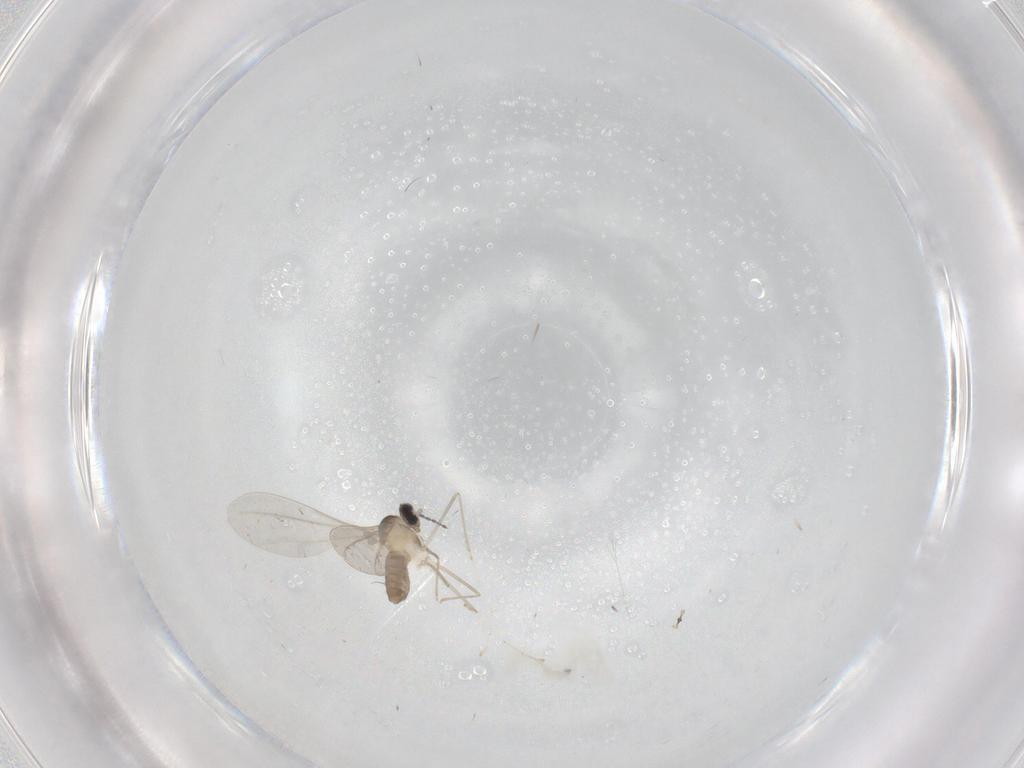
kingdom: Animalia
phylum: Arthropoda
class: Insecta
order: Diptera
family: Cecidomyiidae
